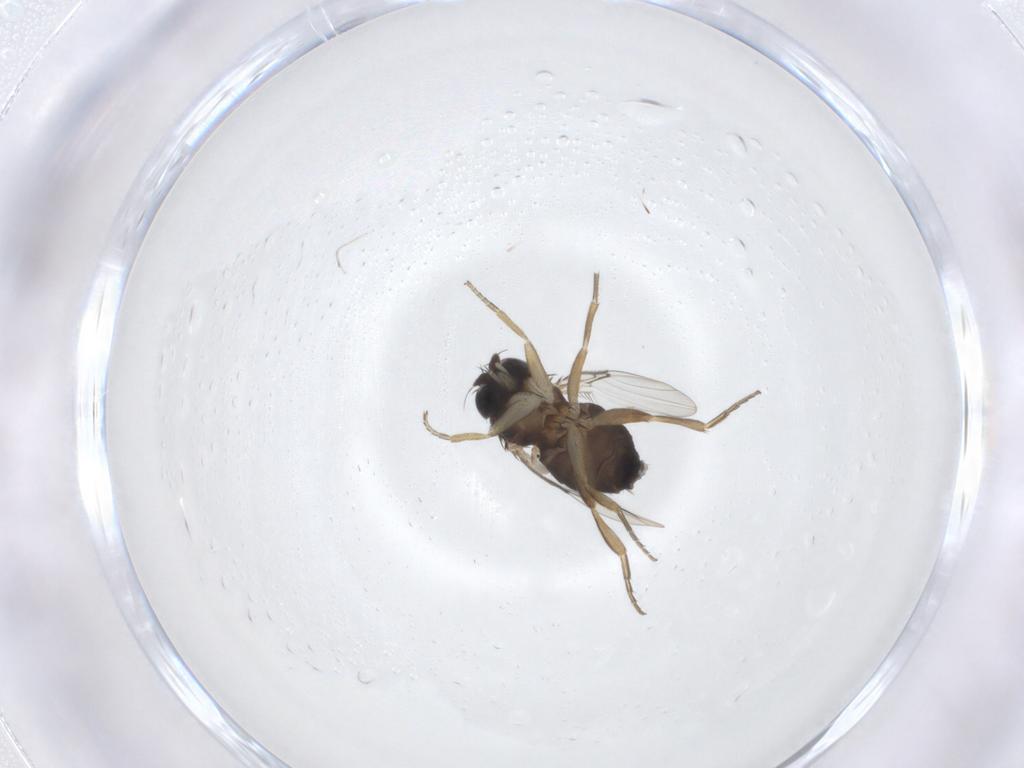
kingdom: Animalia
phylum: Arthropoda
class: Insecta
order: Diptera
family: Phoridae
